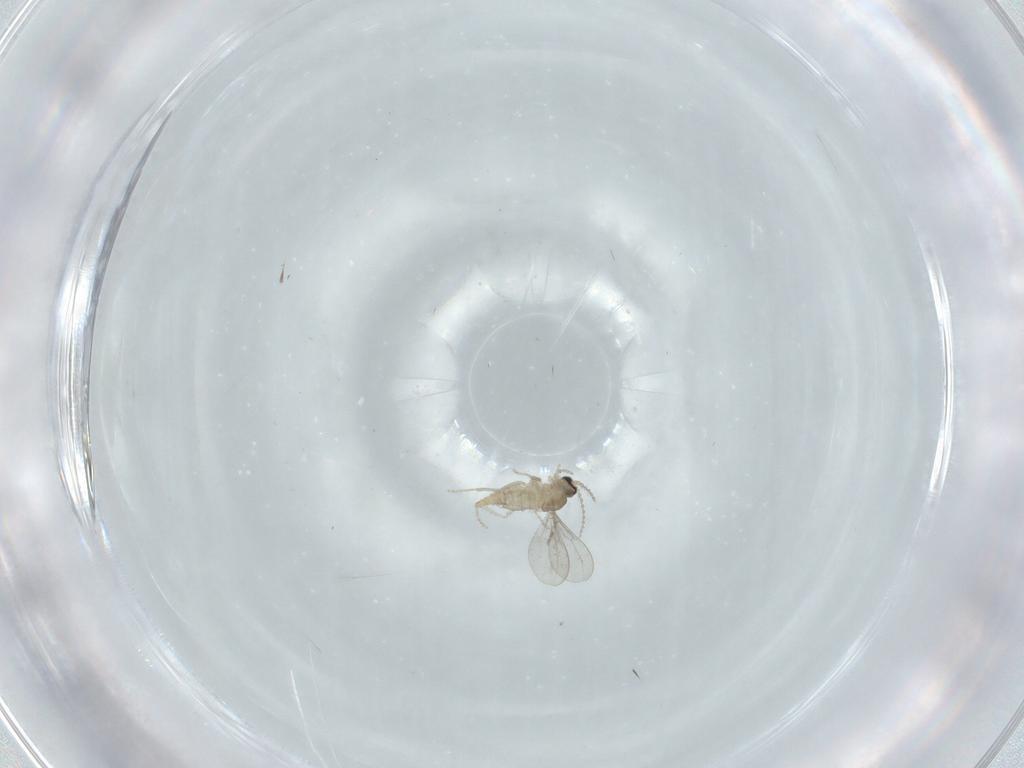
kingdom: Animalia
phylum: Arthropoda
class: Insecta
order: Diptera
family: Cecidomyiidae
